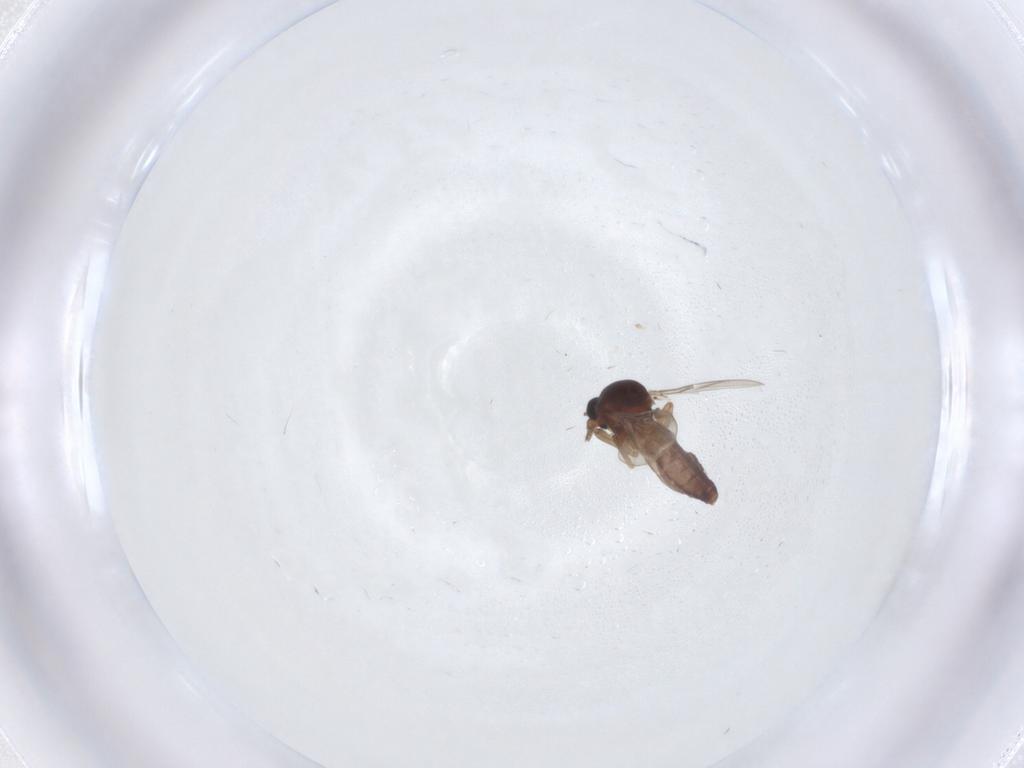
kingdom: Animalia
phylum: Arthropoda
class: Insecta
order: Diptera
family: Ceratopogonidae
